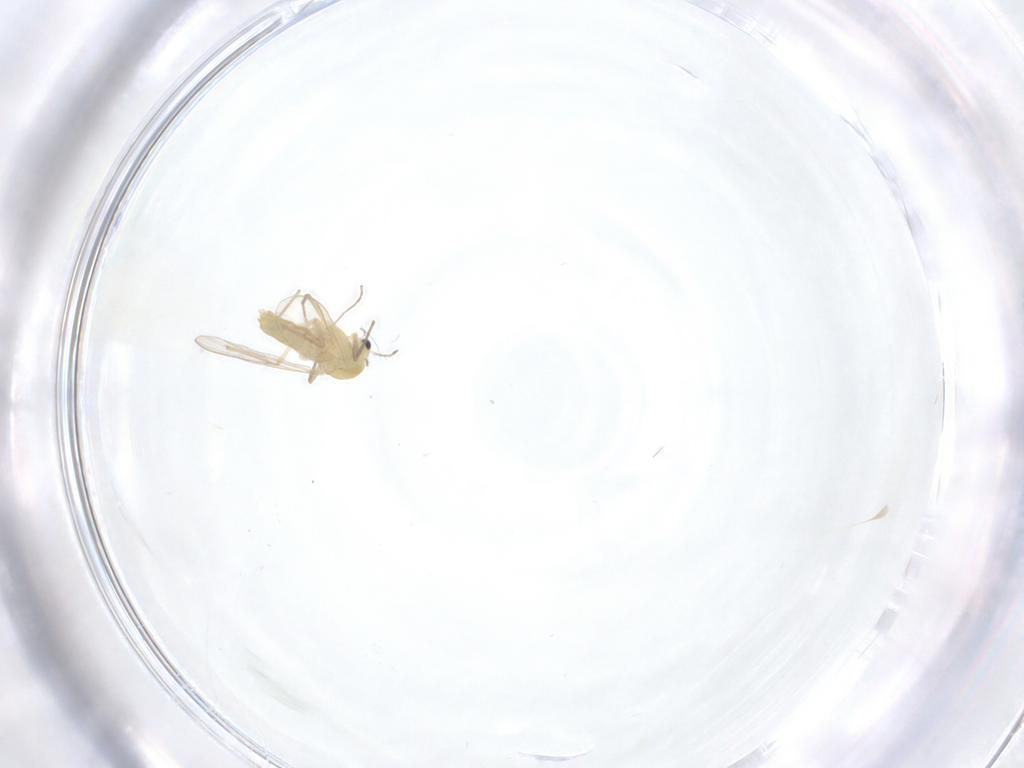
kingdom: Animalia
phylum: Arthropoda
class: Insecta
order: Diptera
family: Chironomidae
